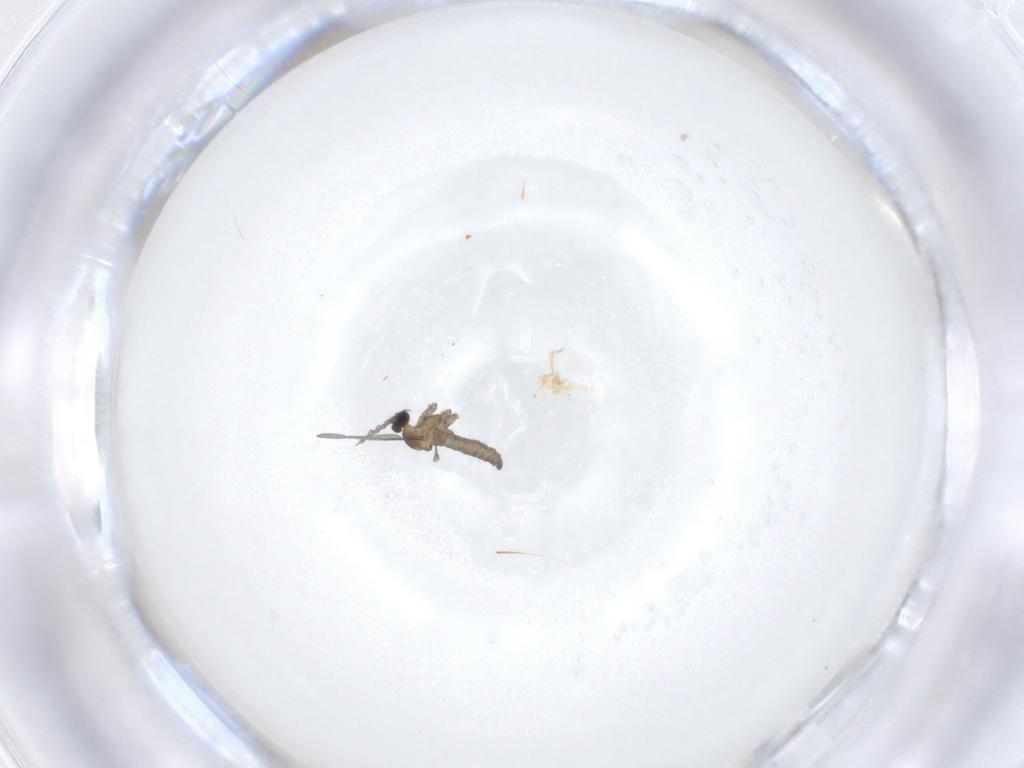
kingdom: Animalia
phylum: Arthropoda
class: Insecta
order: Diptera
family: Cecidomyiidae
